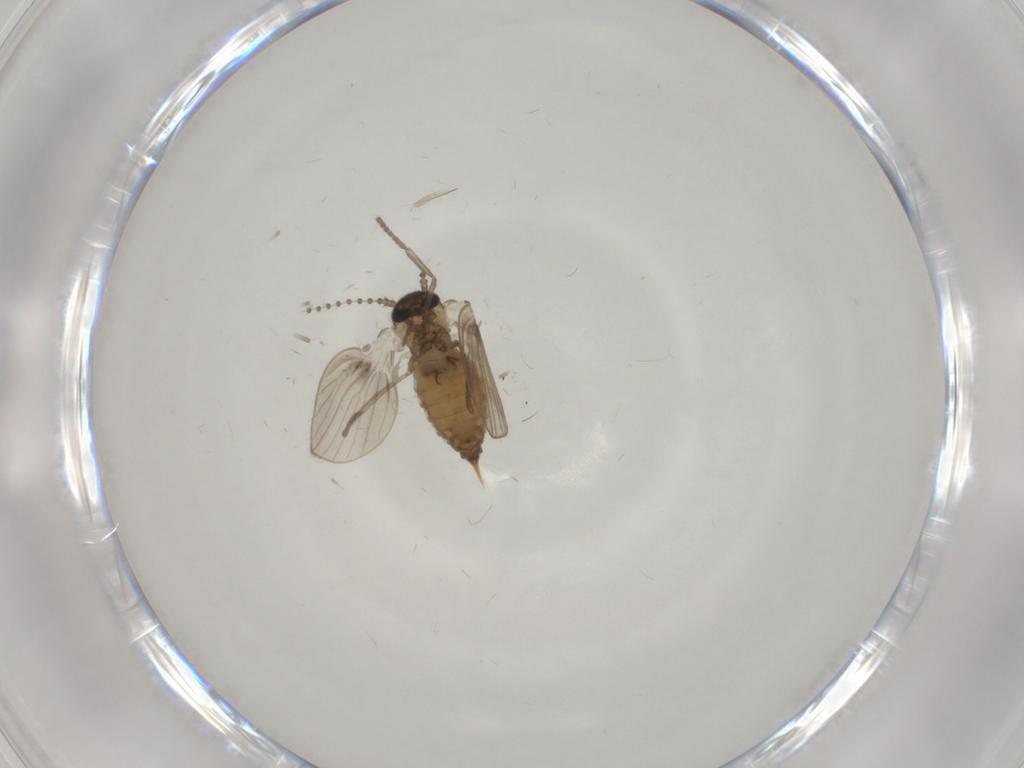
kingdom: Animalia
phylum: Arthropoda
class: Insecta
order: Diptera
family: Psychodidae
